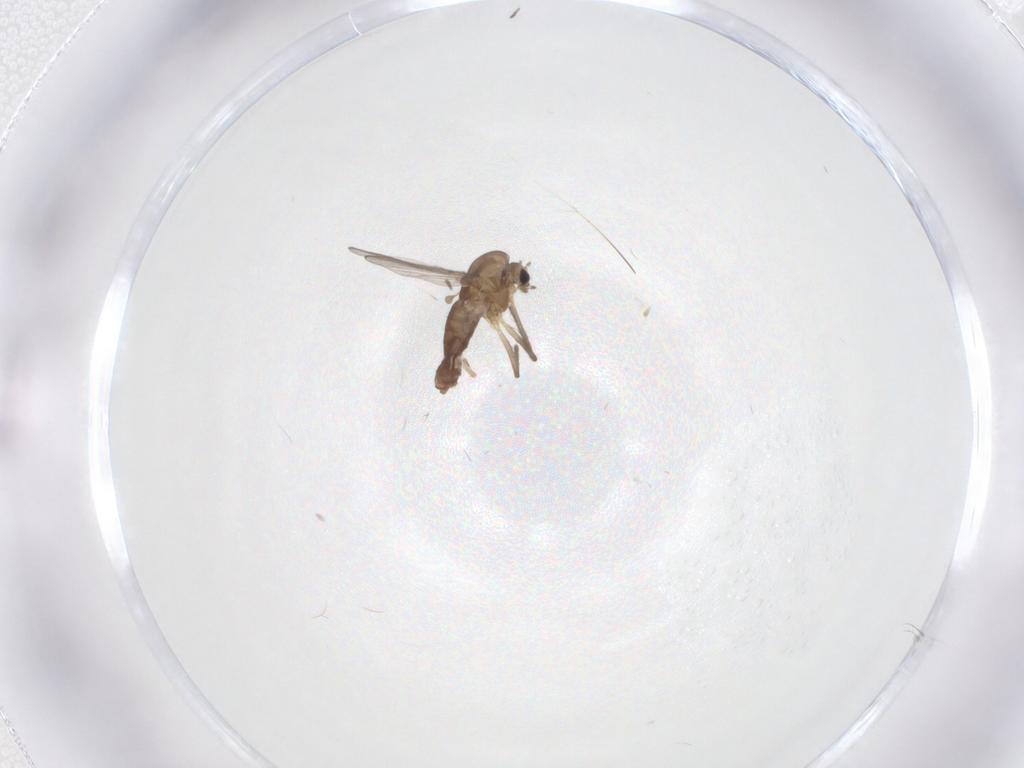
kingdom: Animalia
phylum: Arthropoda
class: Insecta
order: Diptera
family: Chironomidae
